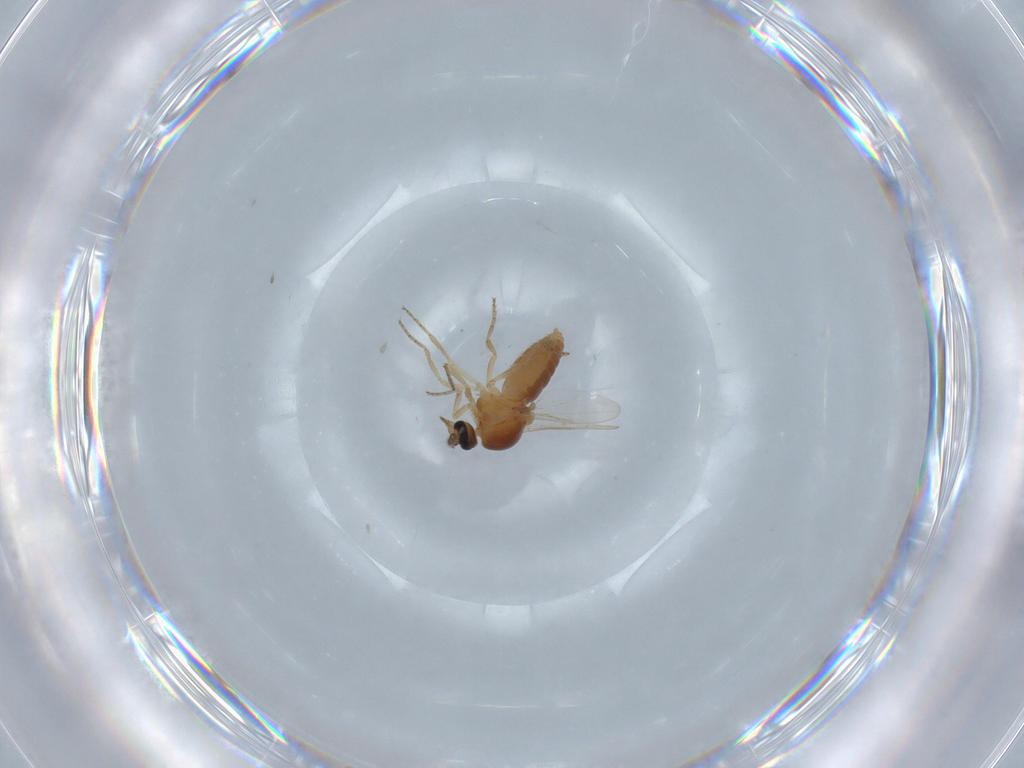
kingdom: Animalia
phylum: Arthropoda
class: Insecta
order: Diptera
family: Ceratopogonidae
